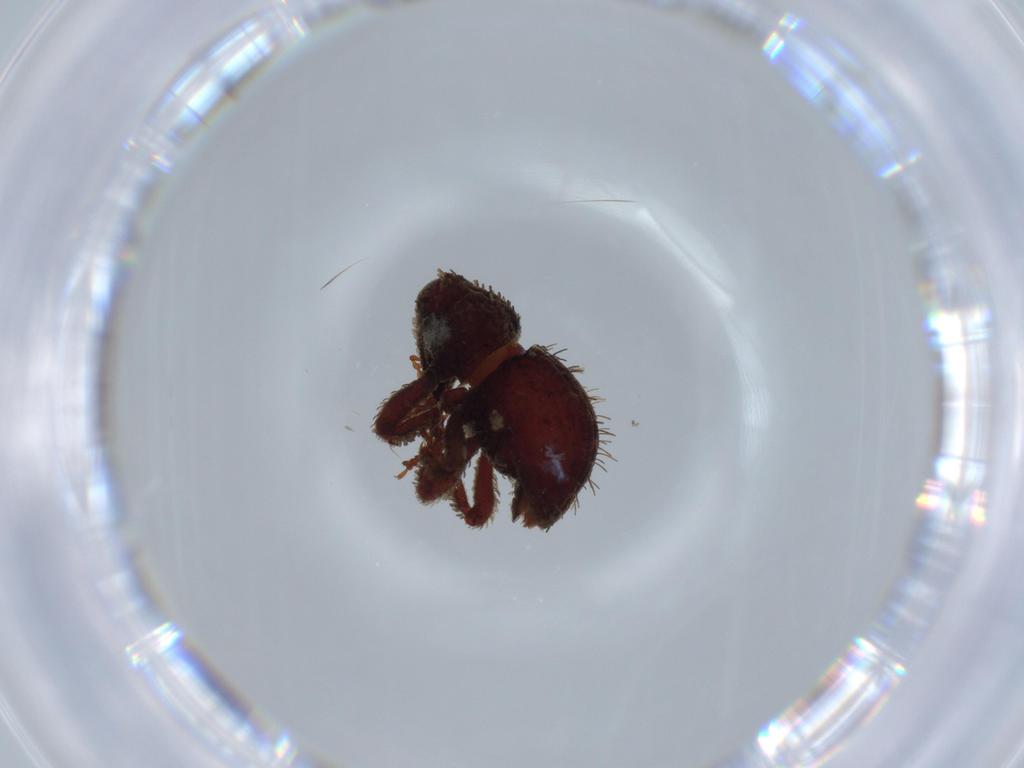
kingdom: Animalia
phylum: Arthropoda
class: Insecta
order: Coleoptera
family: Curculionidae
